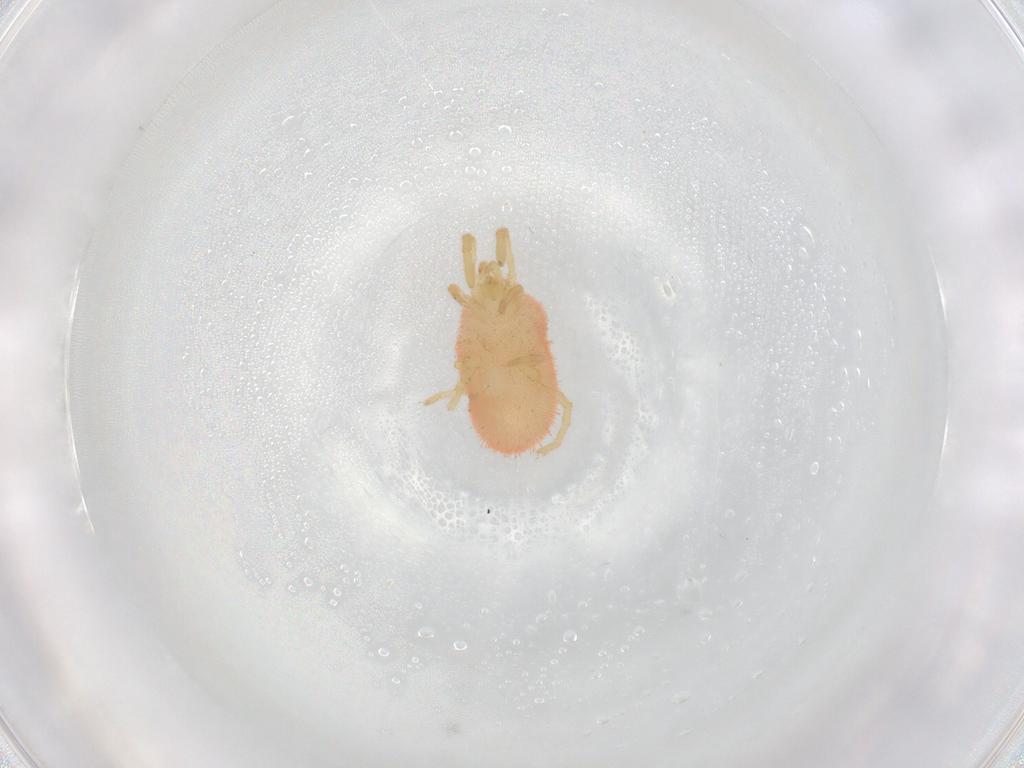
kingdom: Animalia
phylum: Arthropoda
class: Arachnida
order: Trombidiformes
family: Trombidiidae
